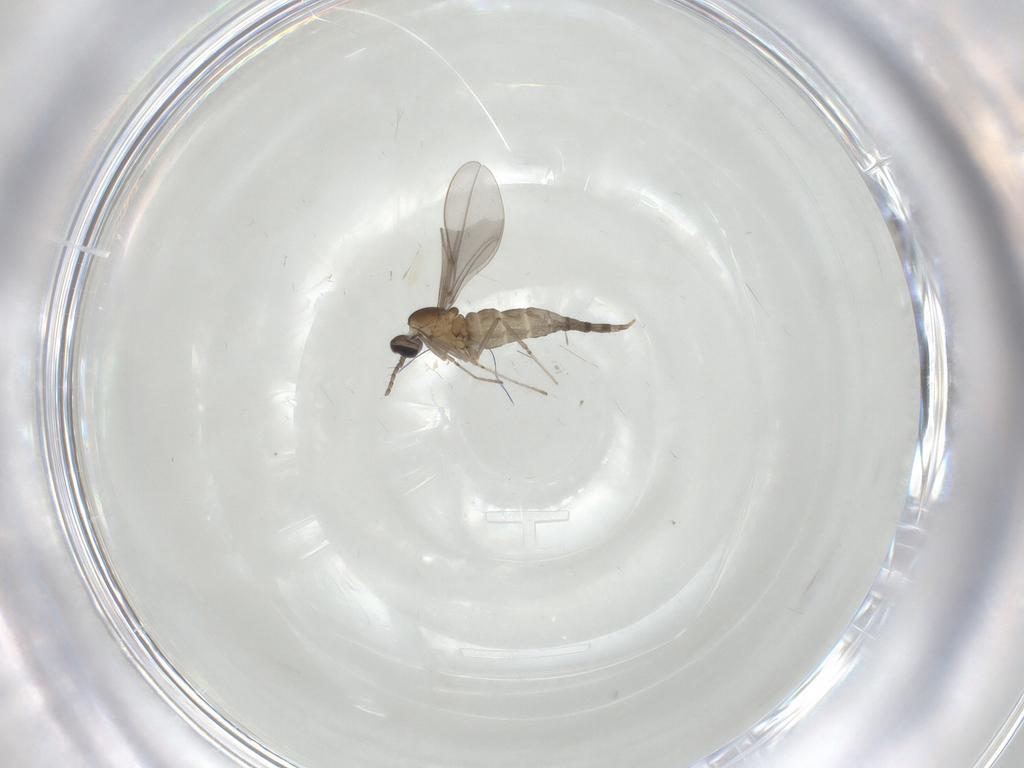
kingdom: Animalia
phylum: Arthropoda
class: Insecta
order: Diptera
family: Cecidomyiidae
